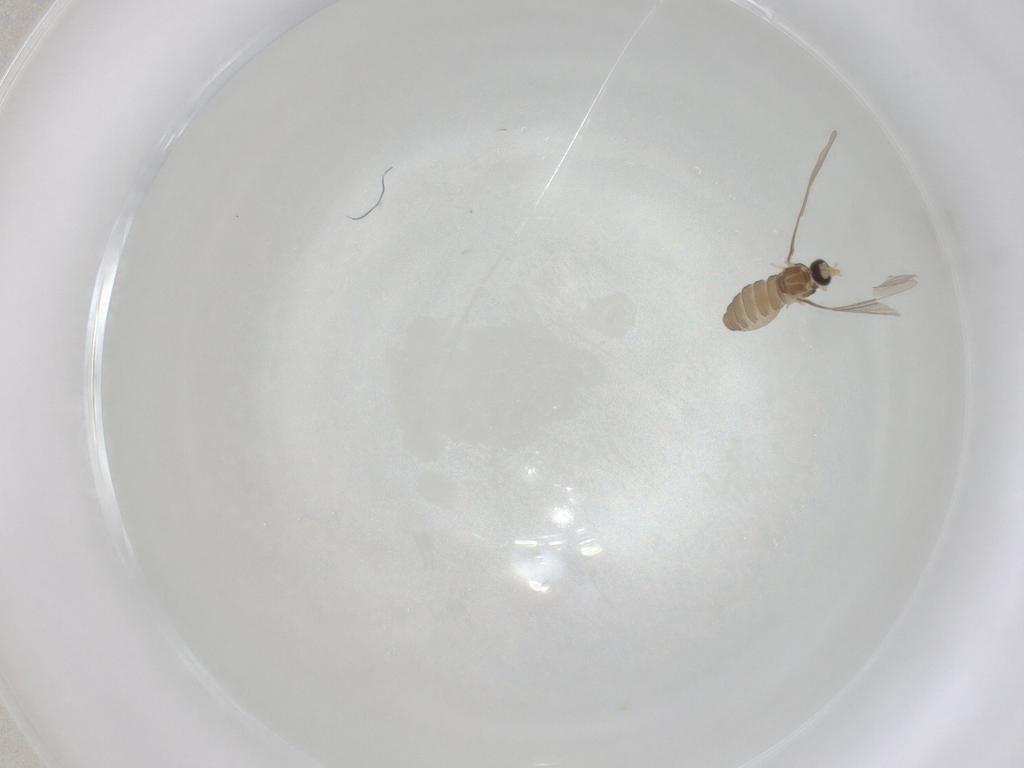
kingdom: Animalia
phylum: Arthropoda
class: Insecta
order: Diptera
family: Cecidomyiidae
